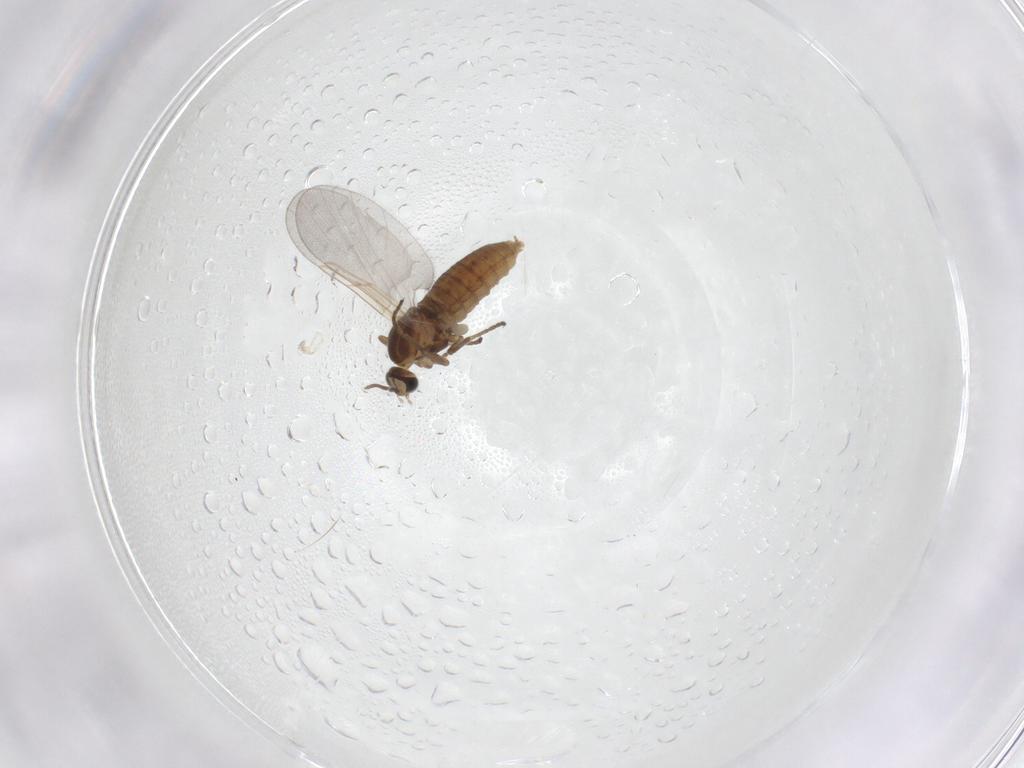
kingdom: Animalia
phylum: Arthropoda
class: Insecta
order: Diptera
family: Cecidomyiidae
